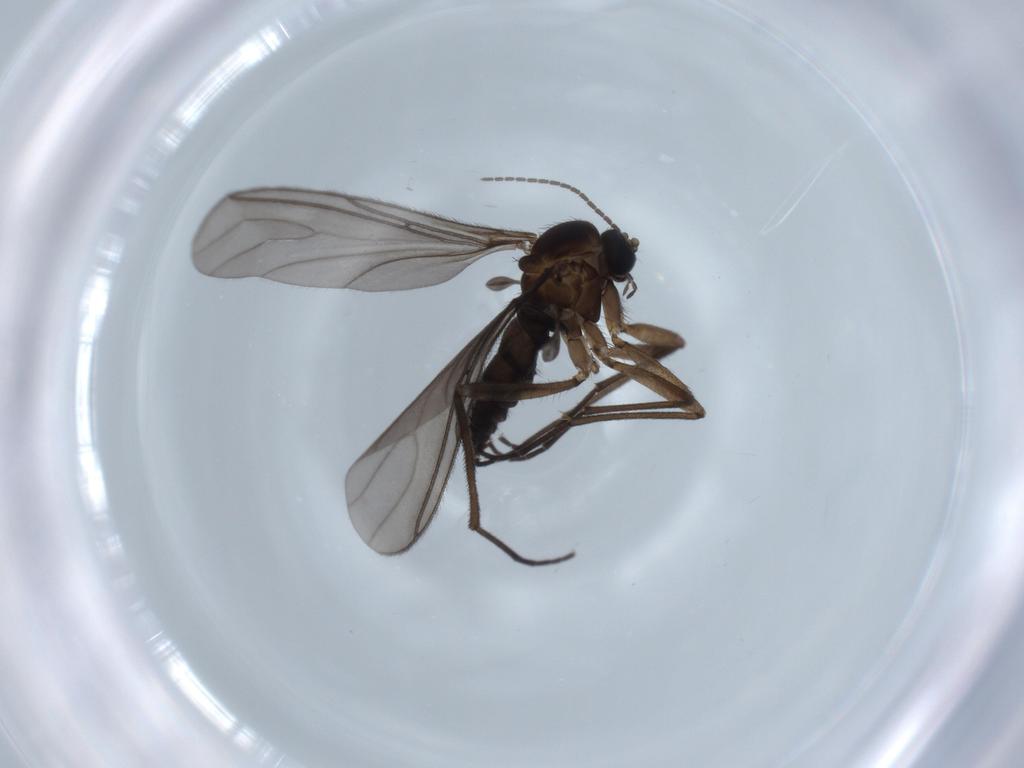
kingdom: Animalia
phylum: Arthropoda
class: Insecta
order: Diptera
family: Sciaridae
